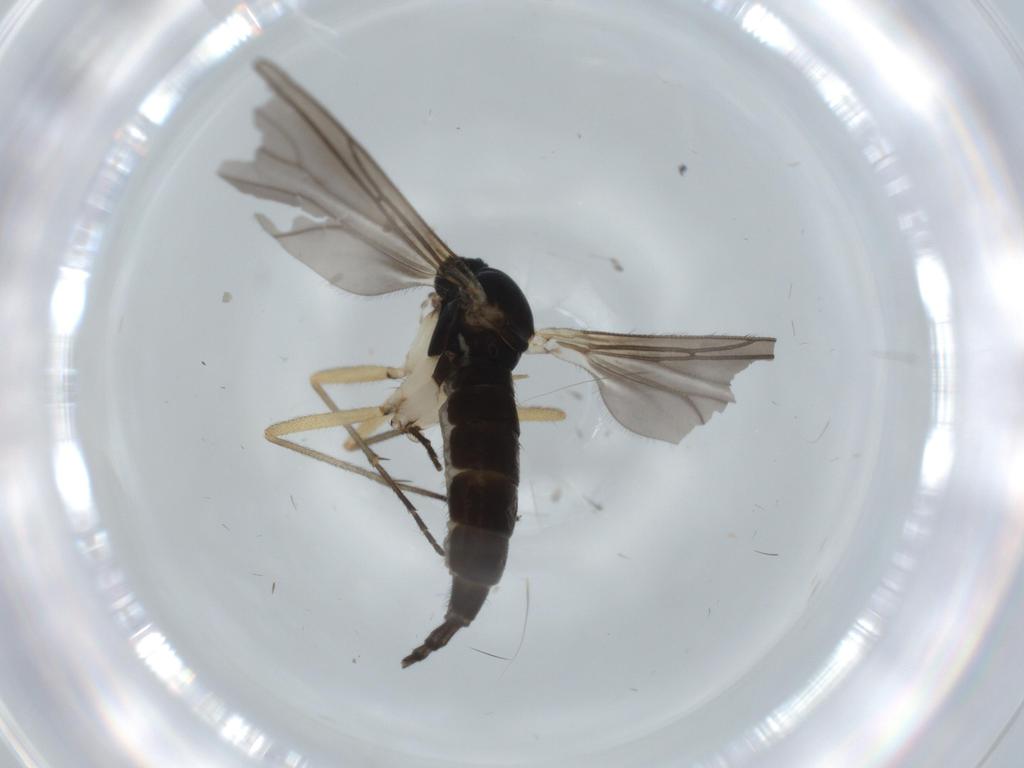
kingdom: Animalia
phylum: Arthropoda
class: Insecta
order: Diptera
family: Sciaridae
